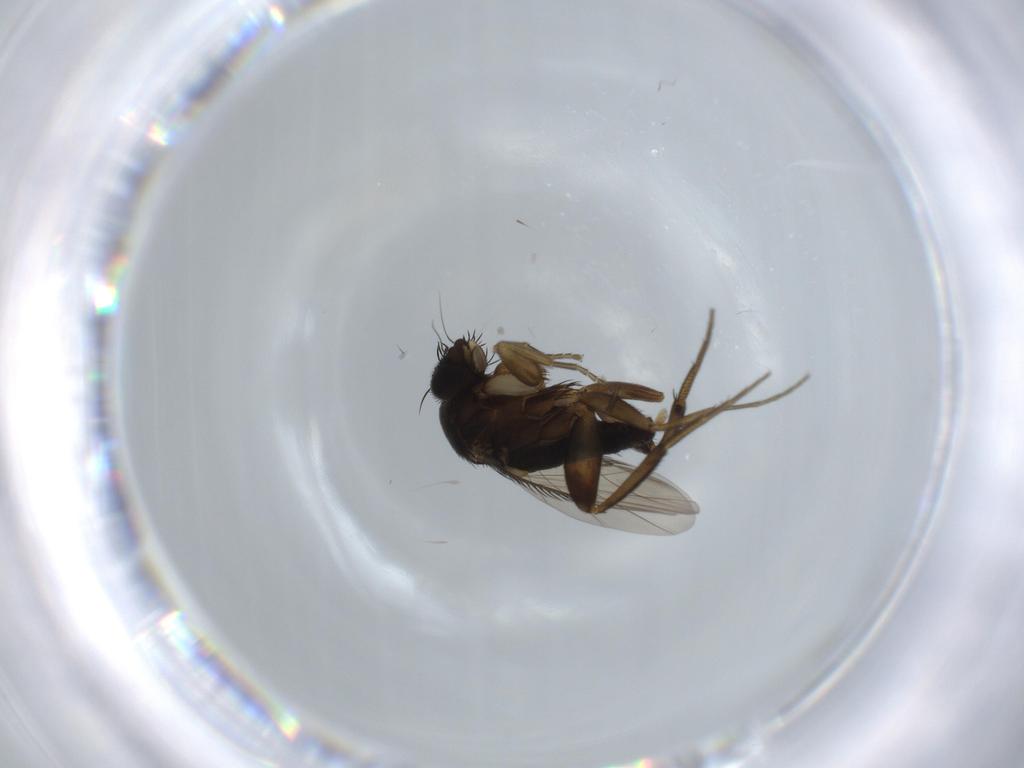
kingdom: Animalia
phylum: Arthropoda
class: Insecta
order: Diptera
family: Phoridae
